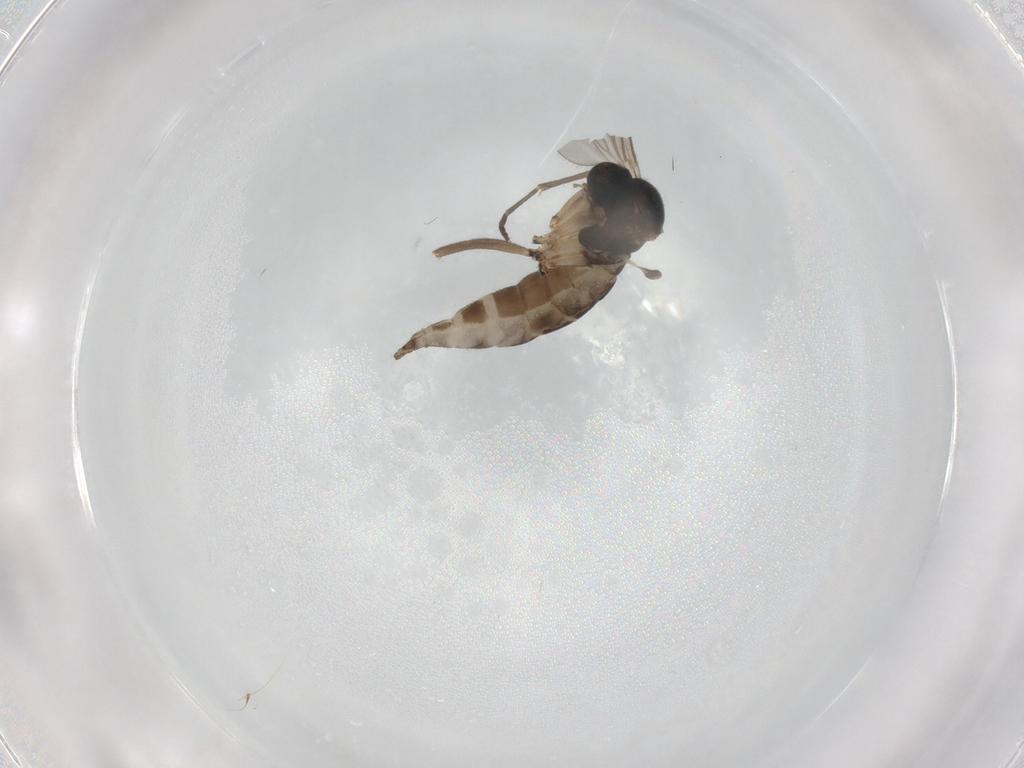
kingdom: Animalia
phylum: Arthropoda
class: Insecta
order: Diptera
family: Sciaridae
